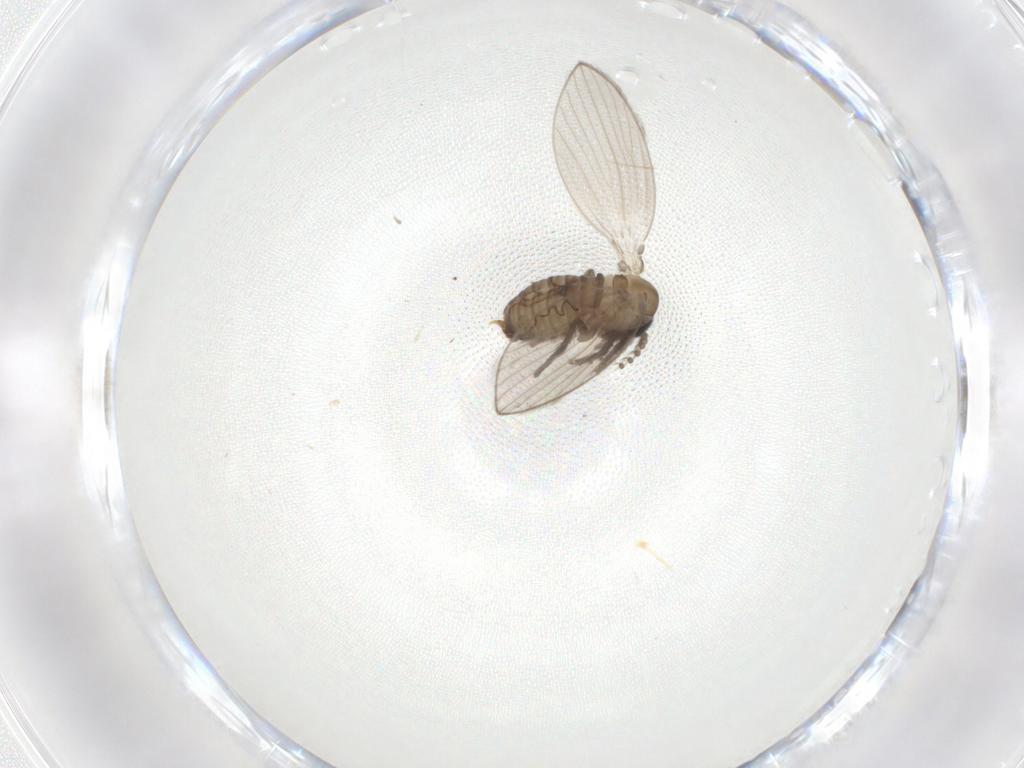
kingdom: Animalia
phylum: Arthropoda
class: Insecta
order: Diptera
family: Psychodidae
